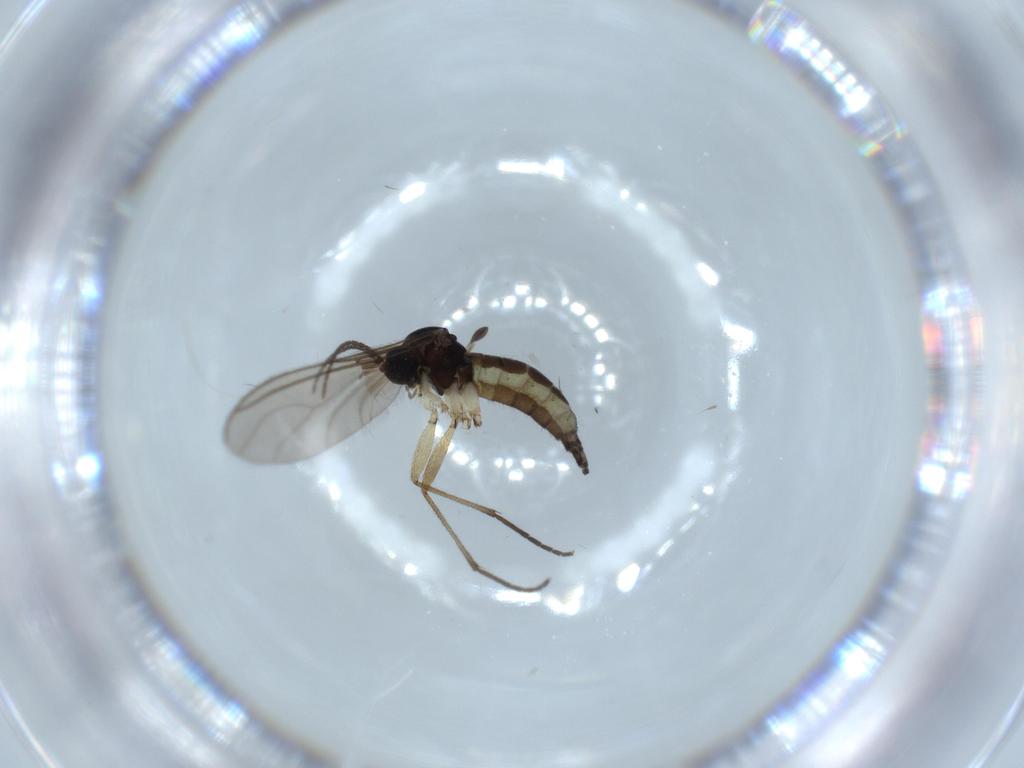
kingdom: Animalia
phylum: Arthropoda
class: Insecta
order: Diptera
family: Sciaridae
